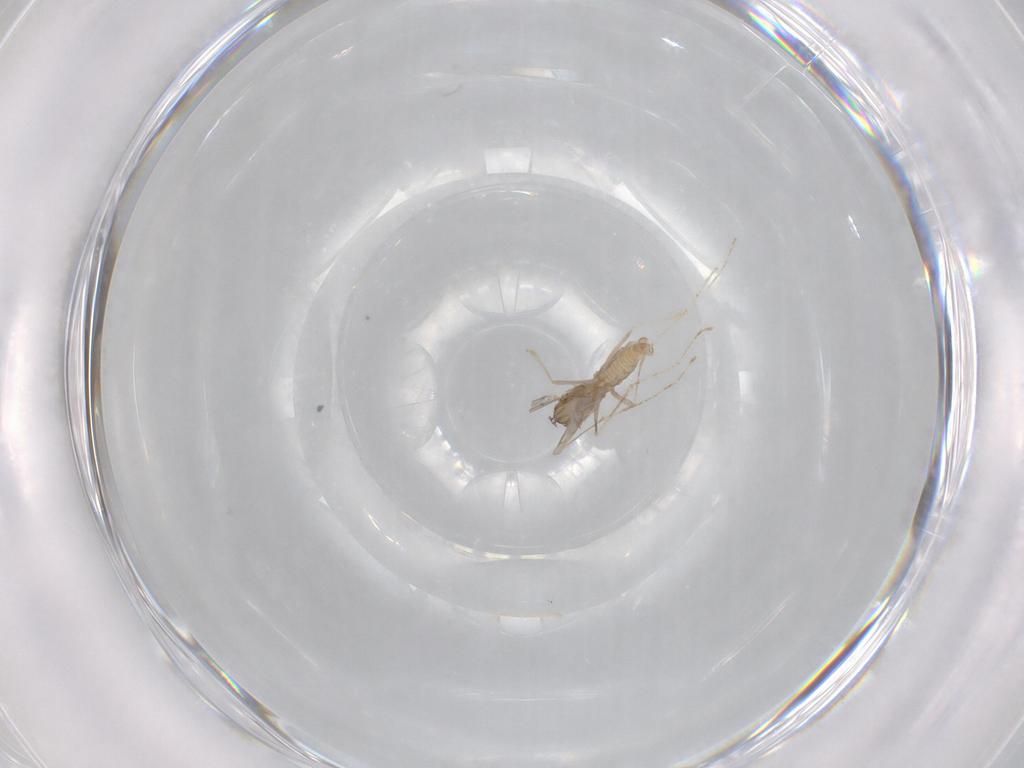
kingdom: Animalia
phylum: Arthropoda
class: Insecta
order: Diptera
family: Cecidomyiidae
